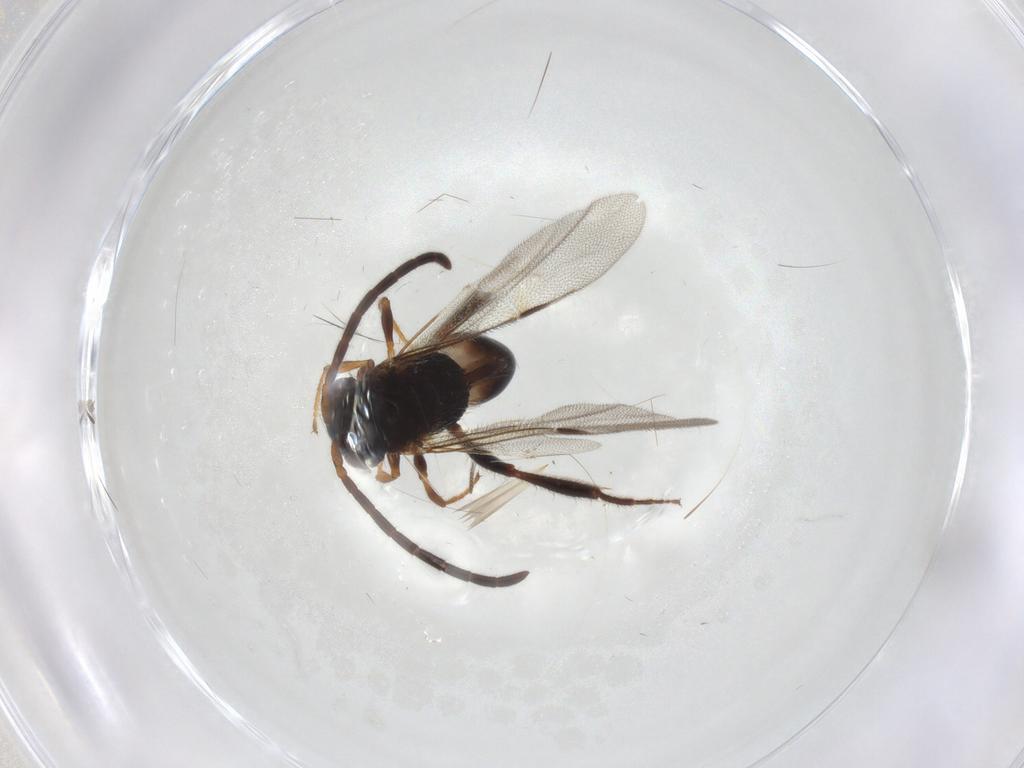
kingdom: Animalia
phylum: Arthropoda
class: Insecta
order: Hymenoptera
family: Evaniidae
